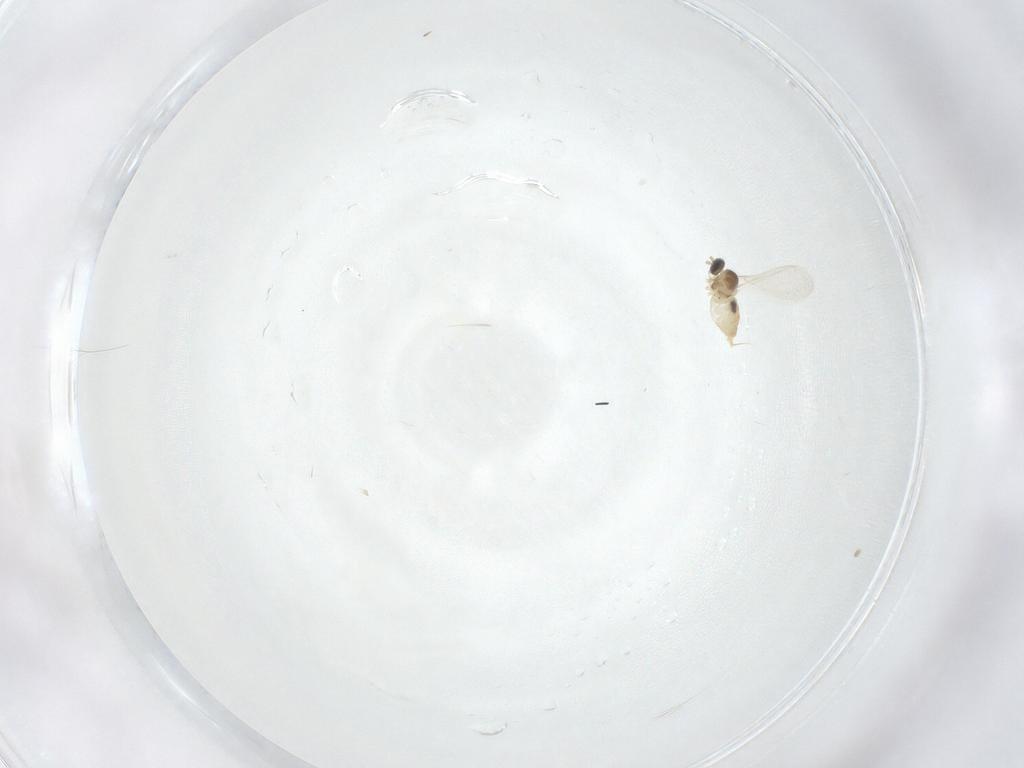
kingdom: Animalia
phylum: Arthropoda
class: Insecta
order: Diptera
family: Cecidomyiidae
